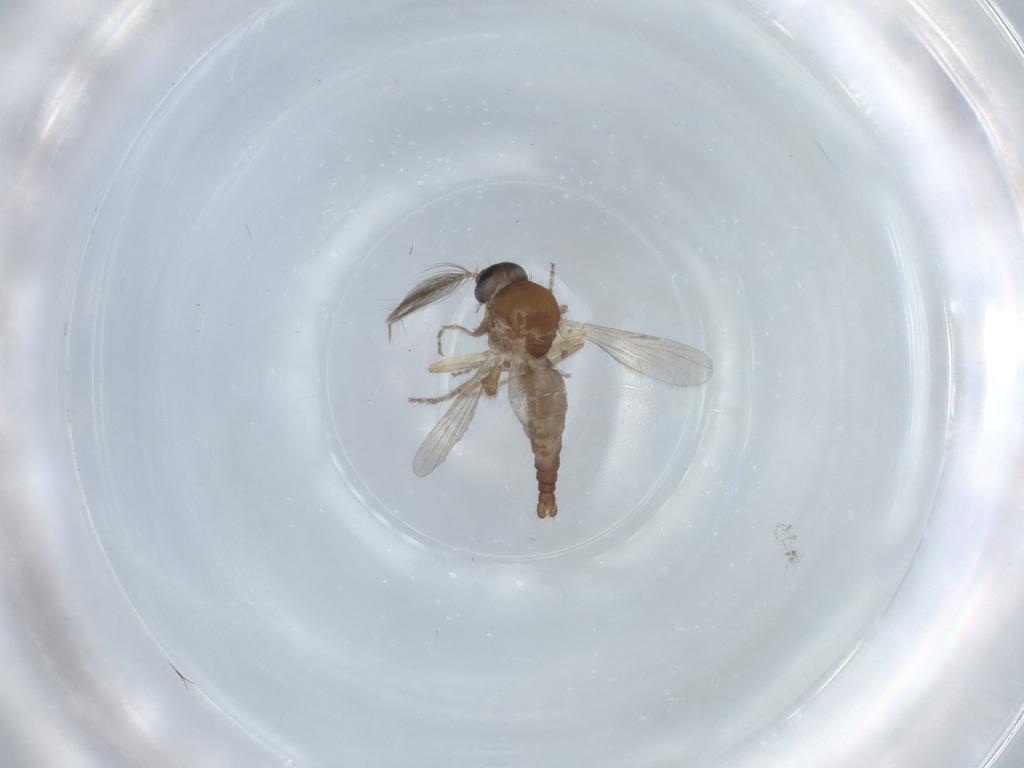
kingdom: Animalia
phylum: Arthropoda
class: Insecta
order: Diptera
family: Ceratopogonidae
